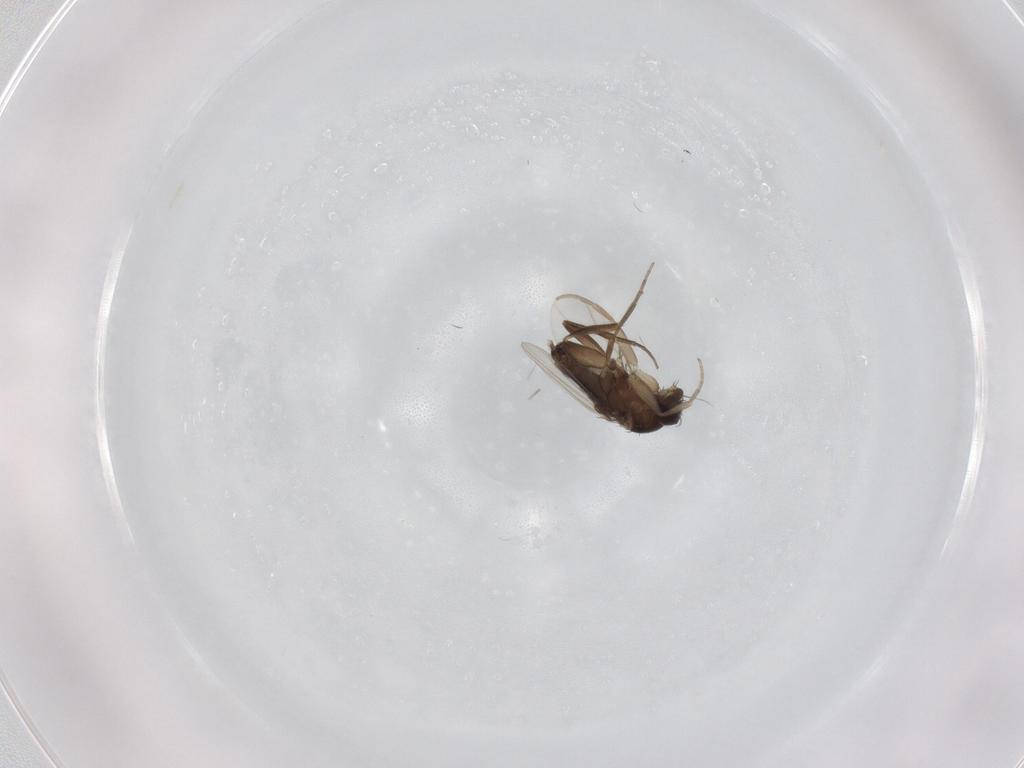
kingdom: Animalia
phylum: Arthropoda
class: Insecta
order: Diptera
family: Phoridae
